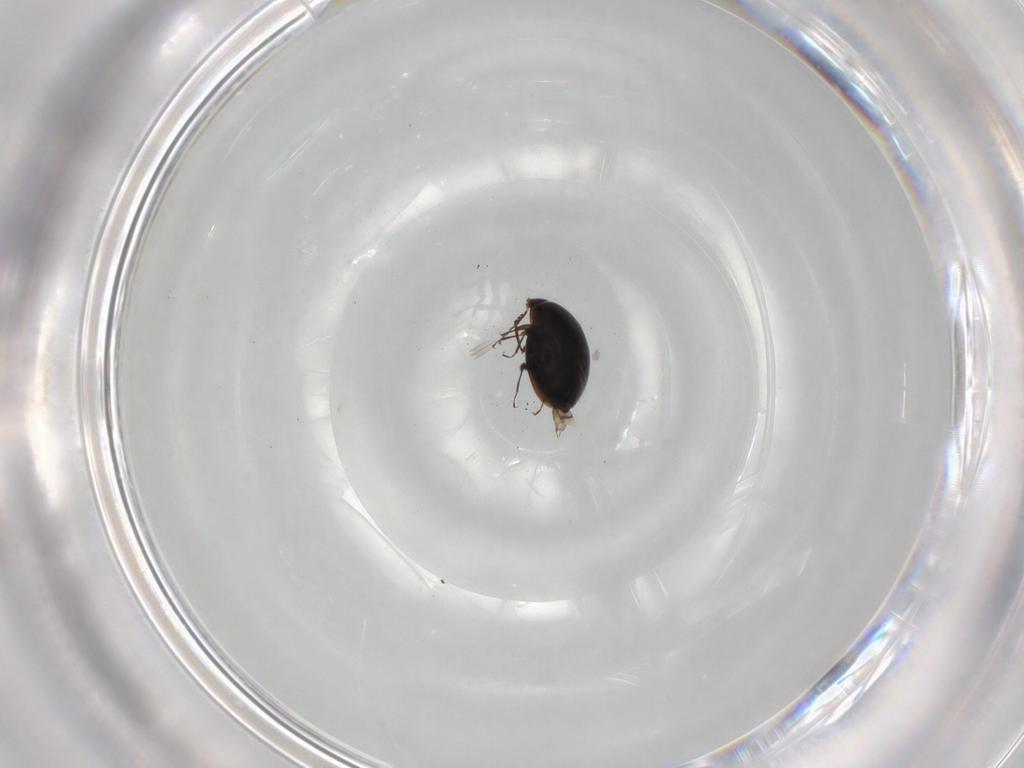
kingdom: Animalia
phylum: Arthropoda
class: Insecta
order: Coleoptera
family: Corylophidae
